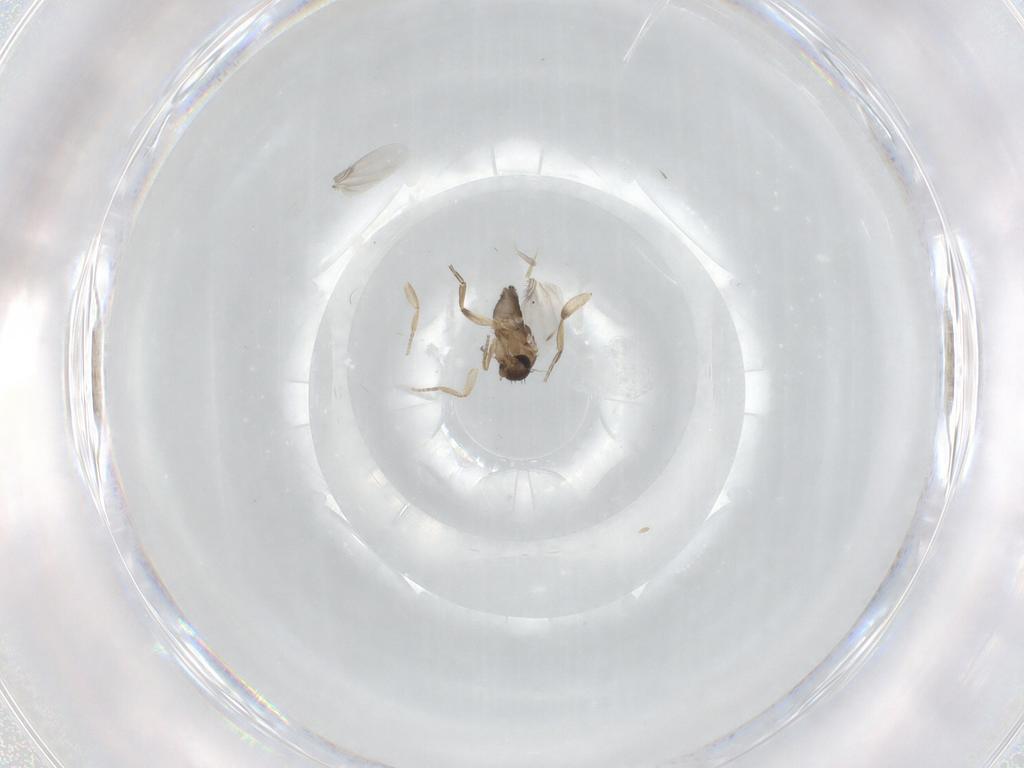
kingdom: Animalia
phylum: Arthropoda
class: Insecta
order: Diptera
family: Phoridae
